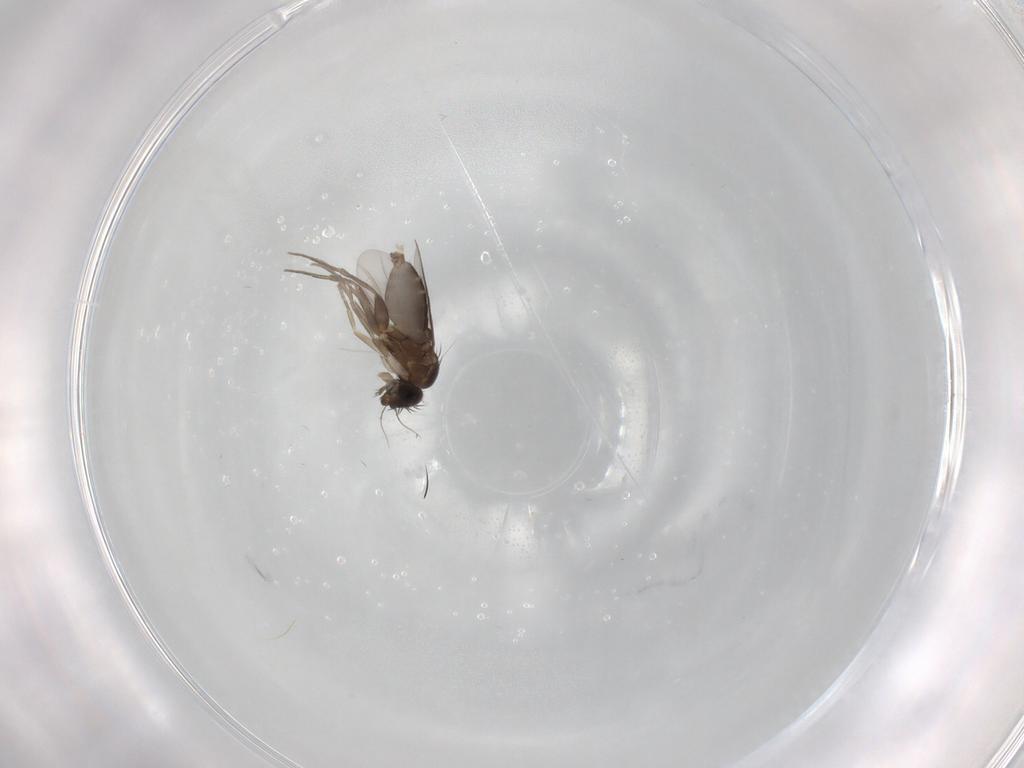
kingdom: Animalia
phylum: Arthropoda
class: Insecta
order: Diptera
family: Phoridae
